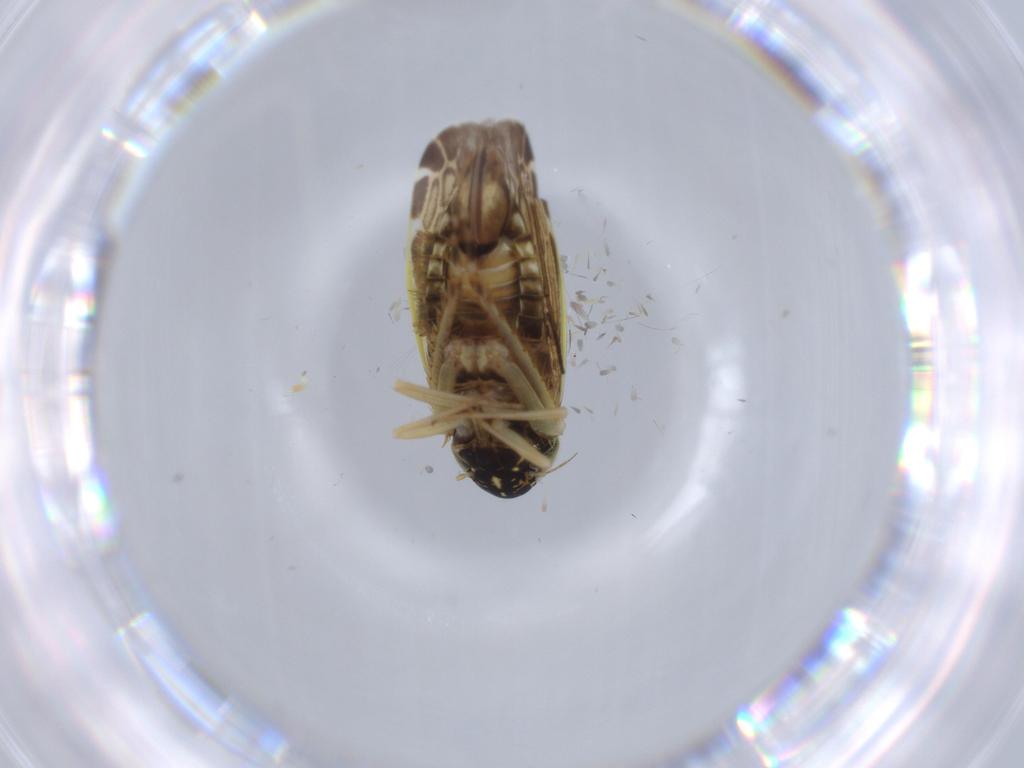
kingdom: Animalia
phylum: Arthropoda
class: Insecta
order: Hemiptera
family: Cicadellidae
